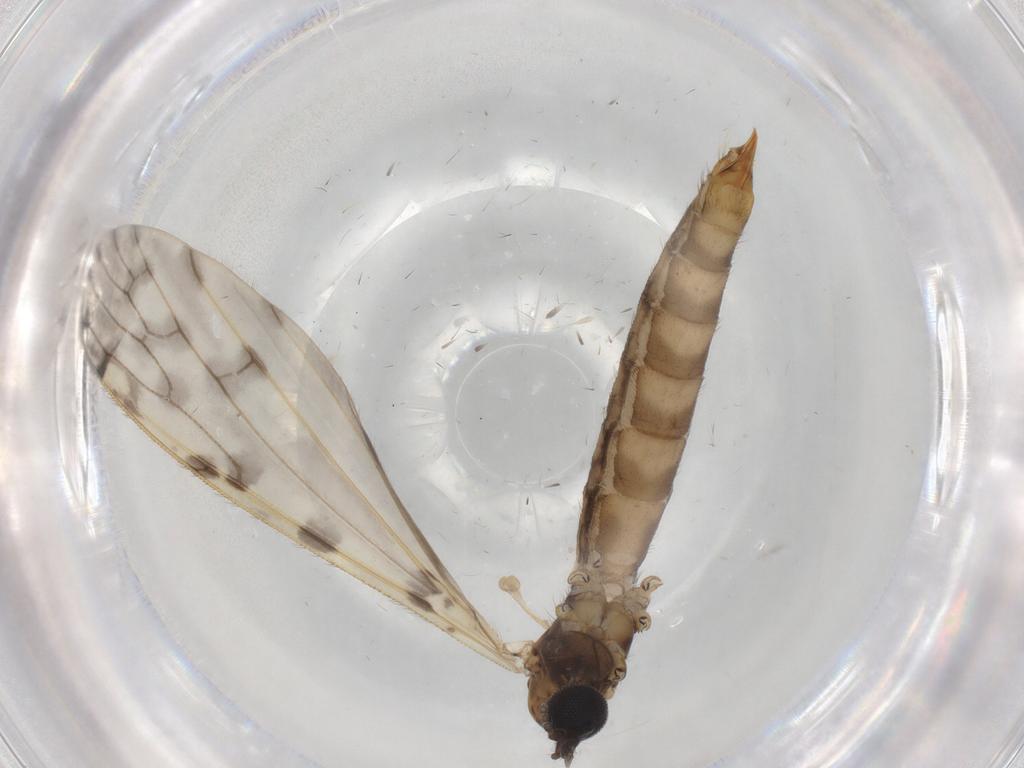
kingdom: Animalia
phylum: Arthropoda
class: Insecta
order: Diptera
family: Limoniidae
